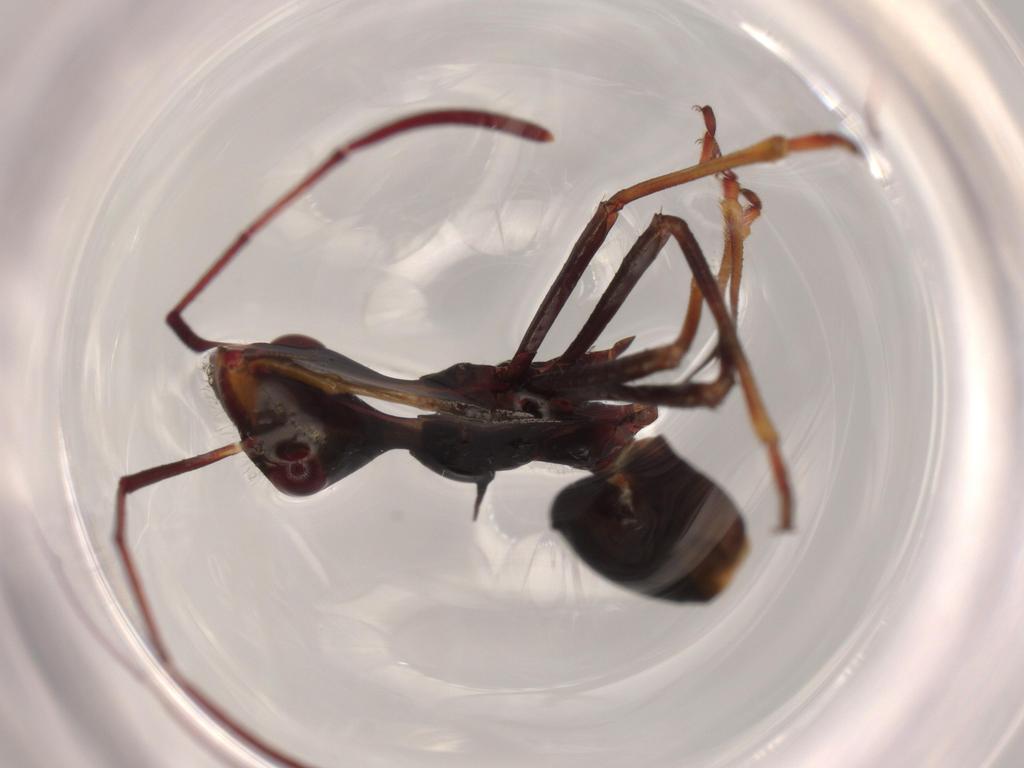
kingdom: Animalia
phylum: Arthropoda
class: Insecta
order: Hemiptera
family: Alydidae
